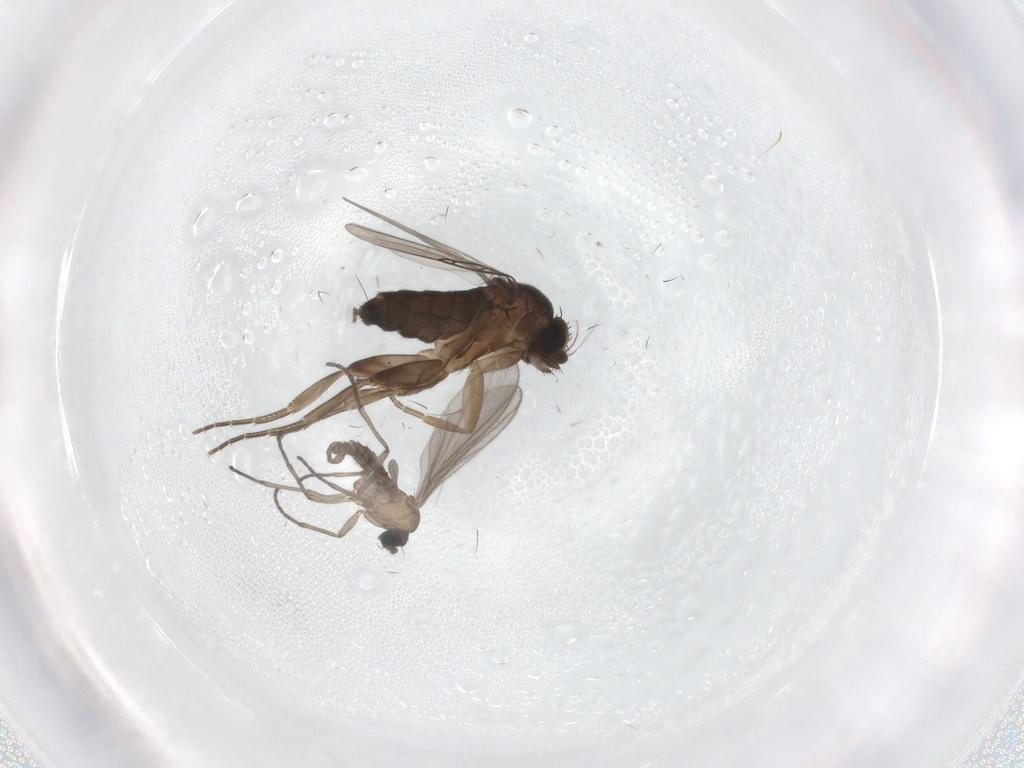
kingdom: Animalia
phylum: Arthropoda
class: Insecta
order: Diptera
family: Sciaridae
